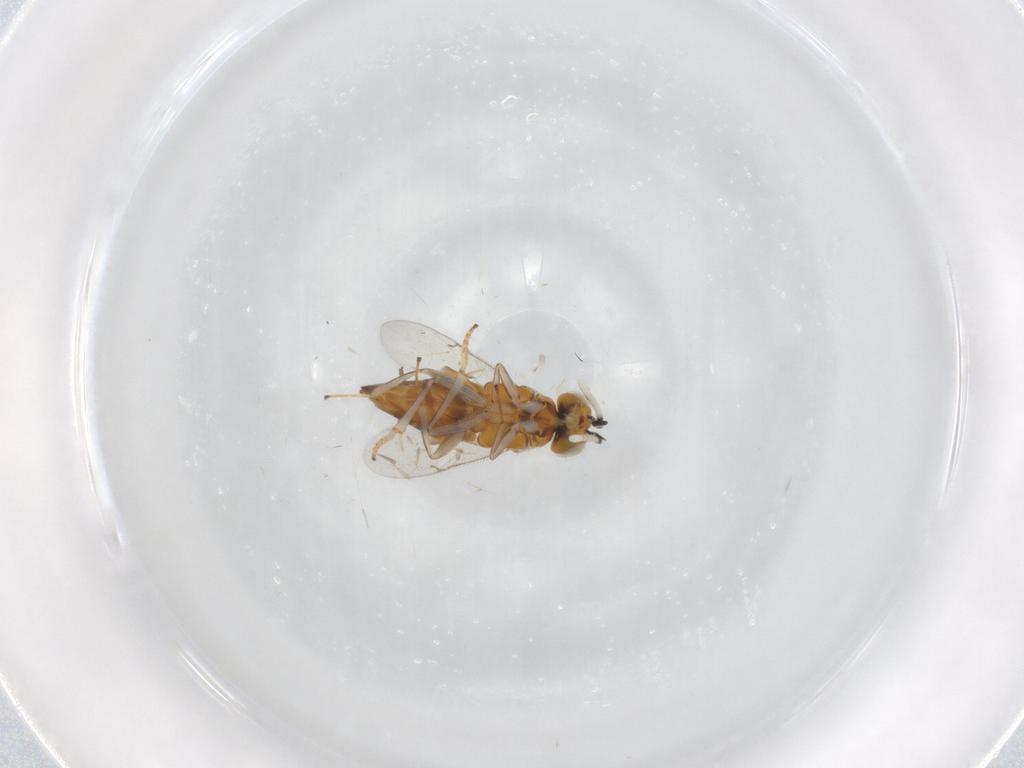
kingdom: Animalia
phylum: Arthropoda
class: Insecta
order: Hymenoptera
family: Encyrtidae
